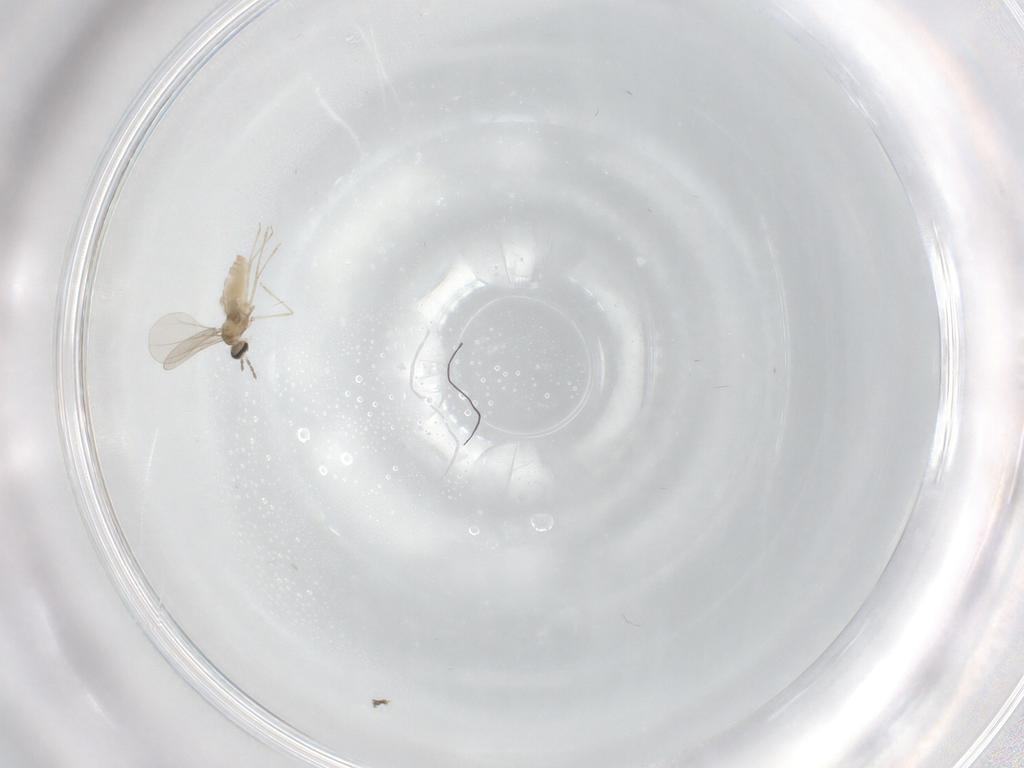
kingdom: Animalia
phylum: Arthropoda
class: Insecta
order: Diptera
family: Cecidomyiidae
